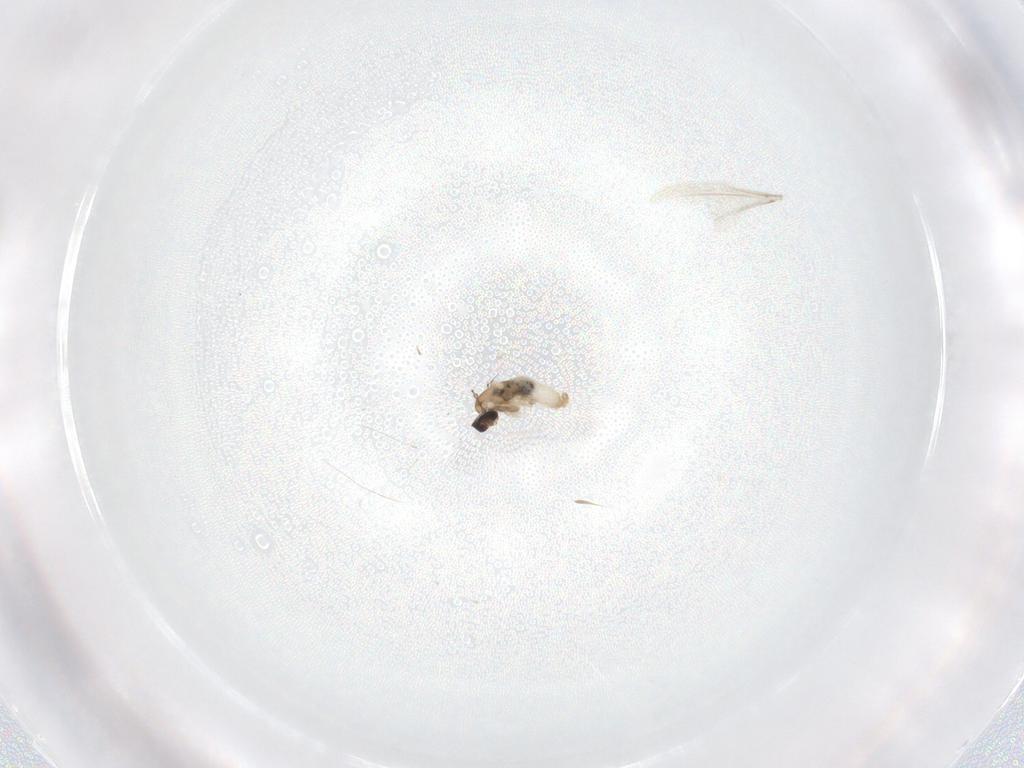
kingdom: Animalia
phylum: Arthropoda
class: Insecta
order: Diptera
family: Cecidomyiidae
